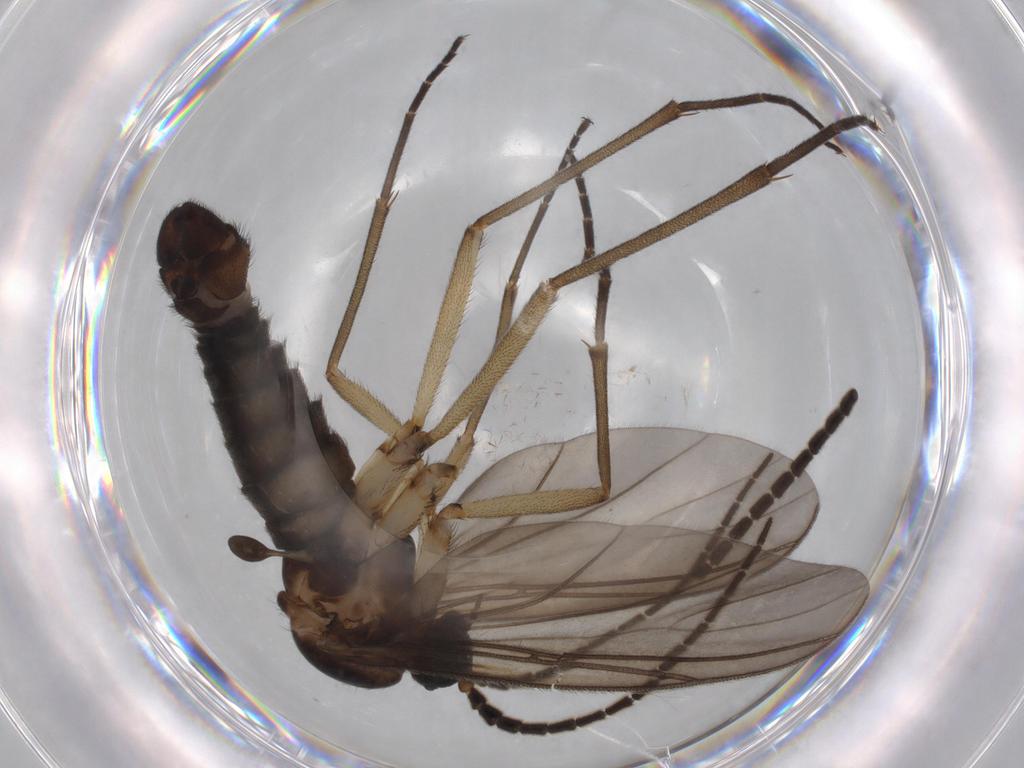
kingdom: Animalia
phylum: Arthropoda
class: Insecta
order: Diptera
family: Sciaridae
